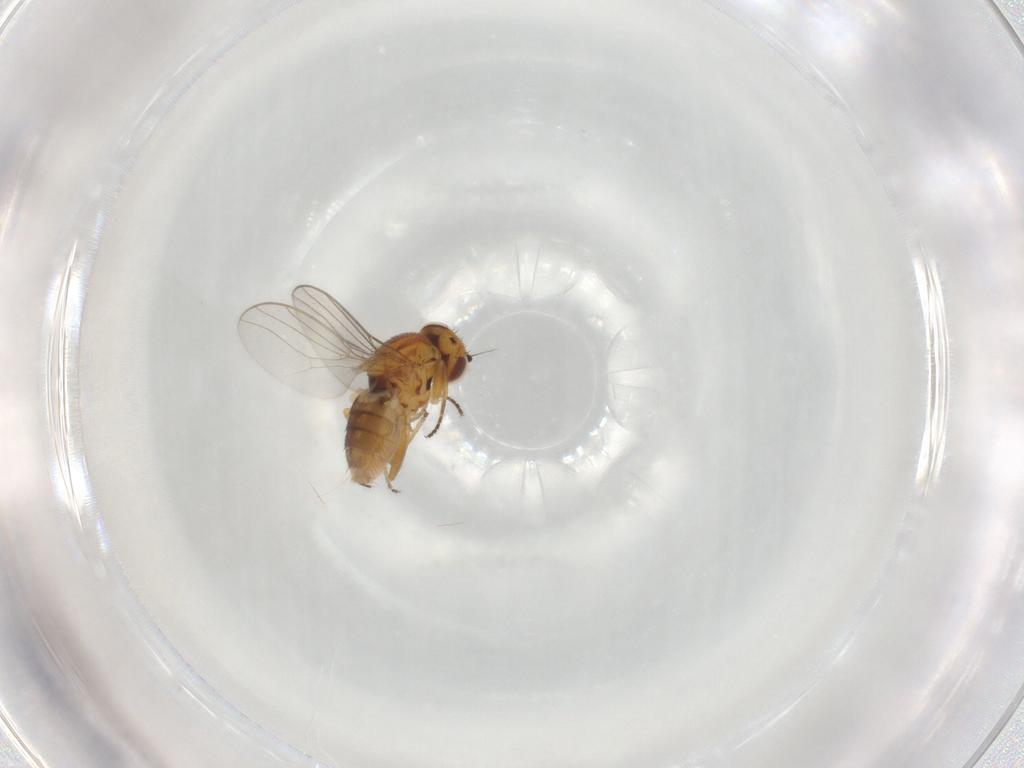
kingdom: Animalia
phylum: Arthropoda
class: Insecta
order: Diptera
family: Chloropidae
